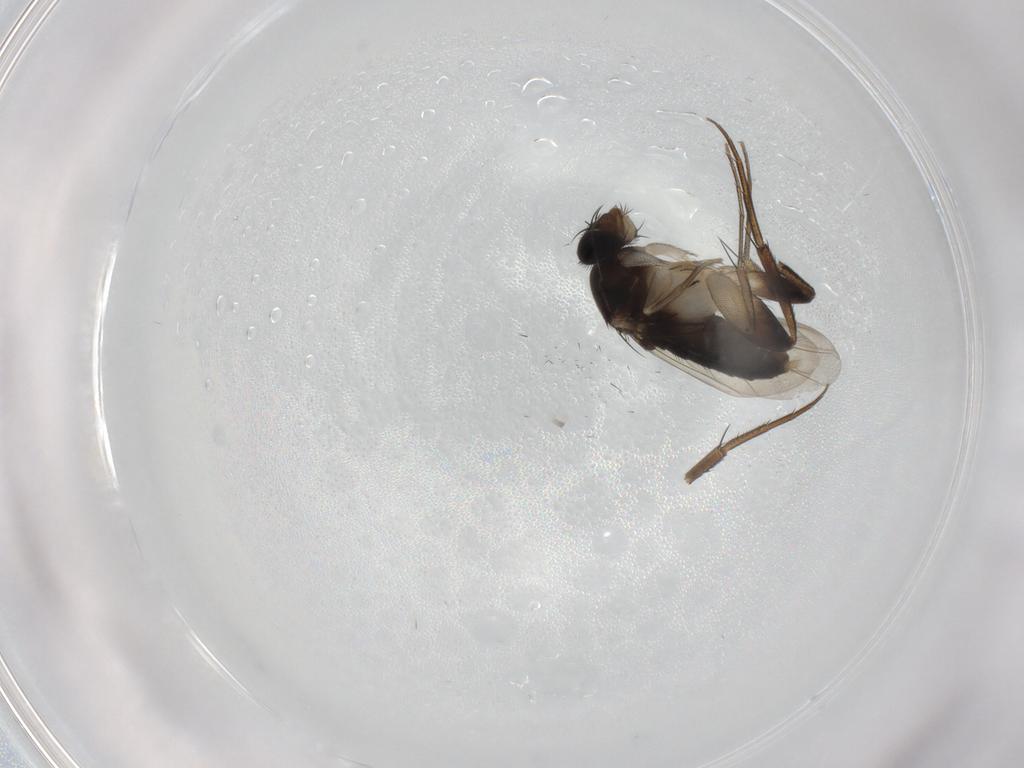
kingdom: Animalia
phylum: Arthropoda
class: Insecta
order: Diptera
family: Phoridae
